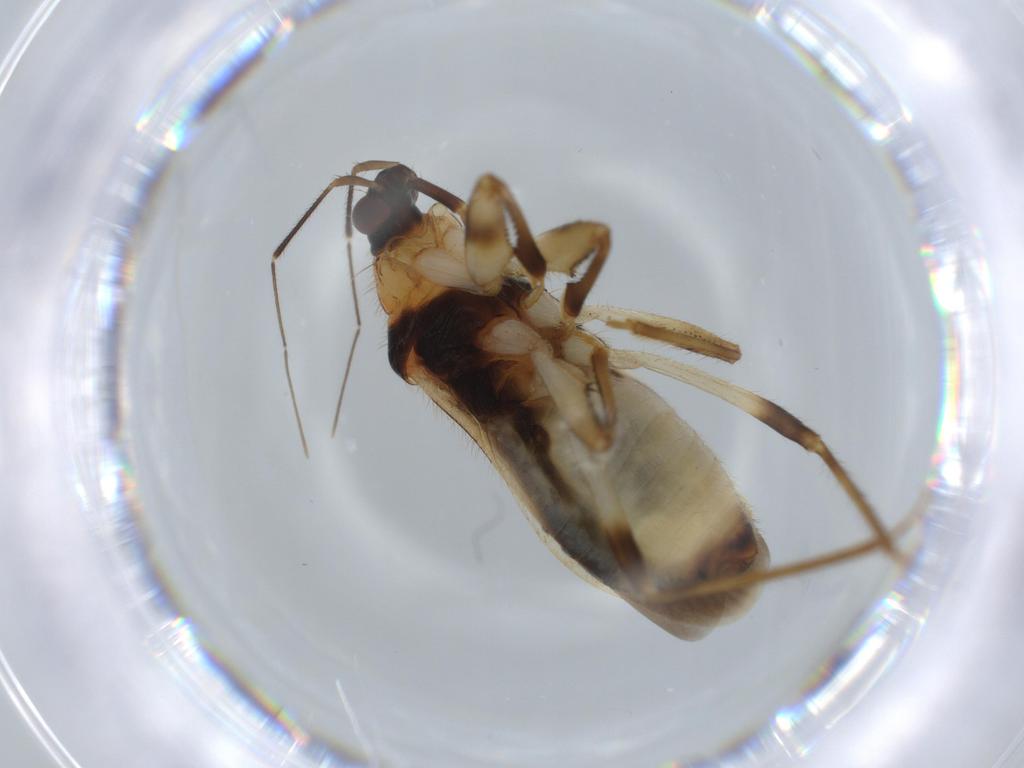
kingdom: Animalia
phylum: Arthropoda
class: Insecta
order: Hemiptera
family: Nabidae
